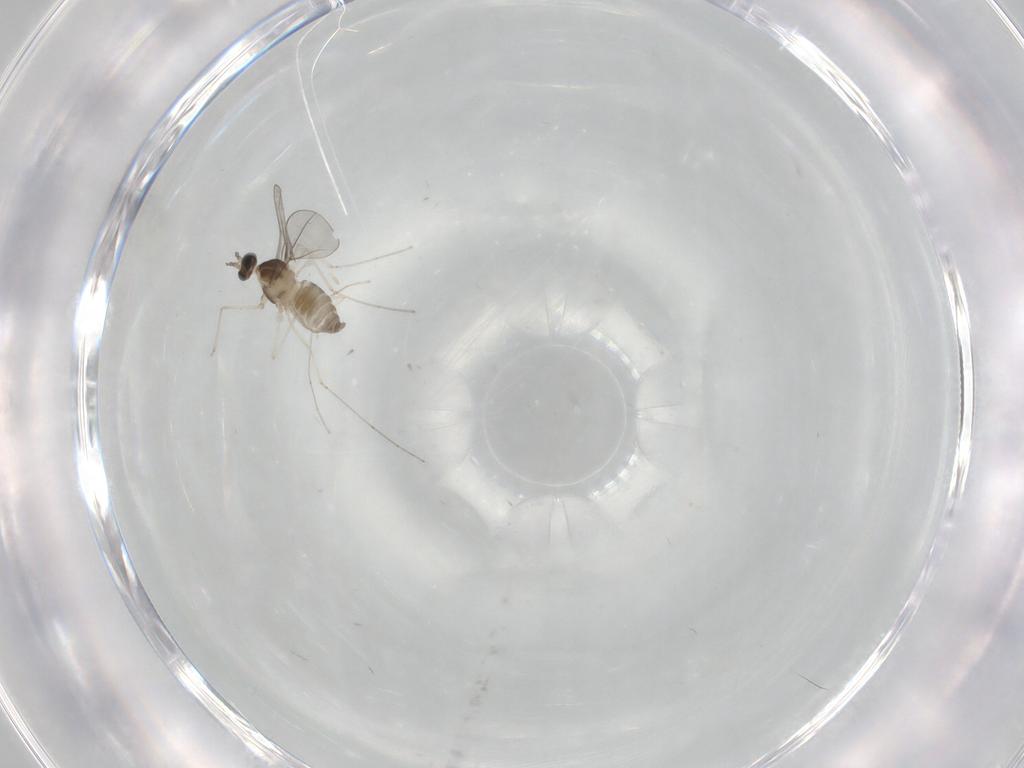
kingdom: Animalia
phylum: Arthropoda
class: Insecta
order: Diptera
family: Cecidomyiidae
